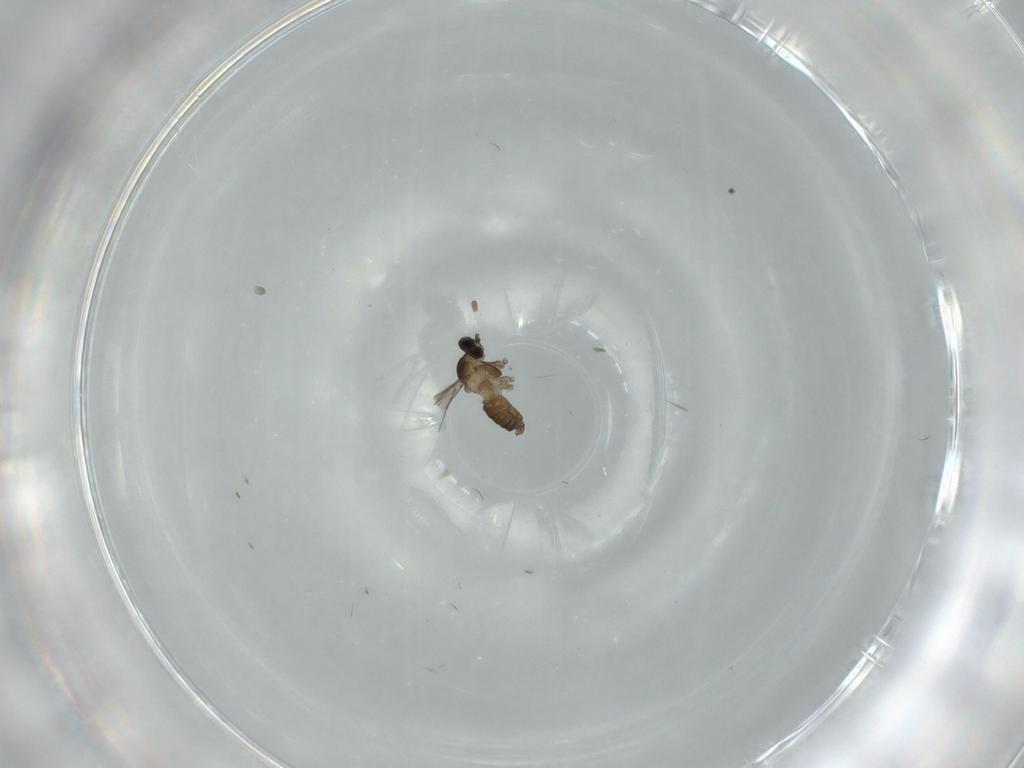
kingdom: Animalia
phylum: Arthropoda
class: Insecta
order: Diptera
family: Cecidomyiidae
